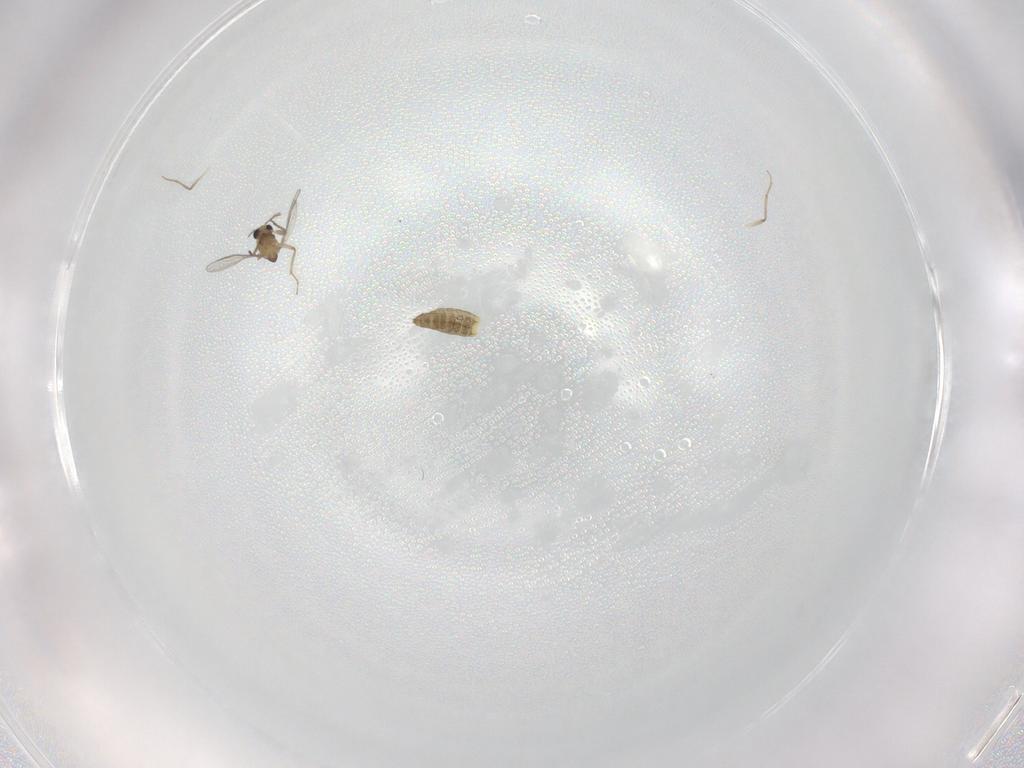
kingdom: Animalia
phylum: Arthropoda
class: Insecta
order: Diptera
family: Chironomidae
